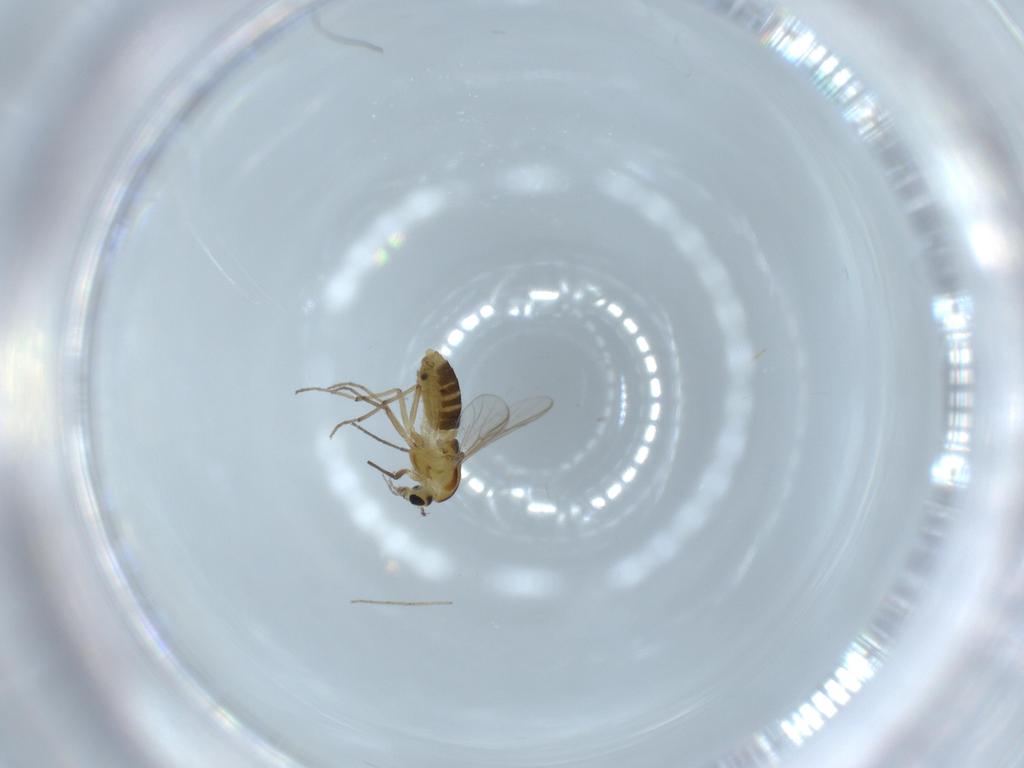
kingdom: Animalia
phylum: Arthropoda
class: Insecta
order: Diptera
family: Chironomidae
